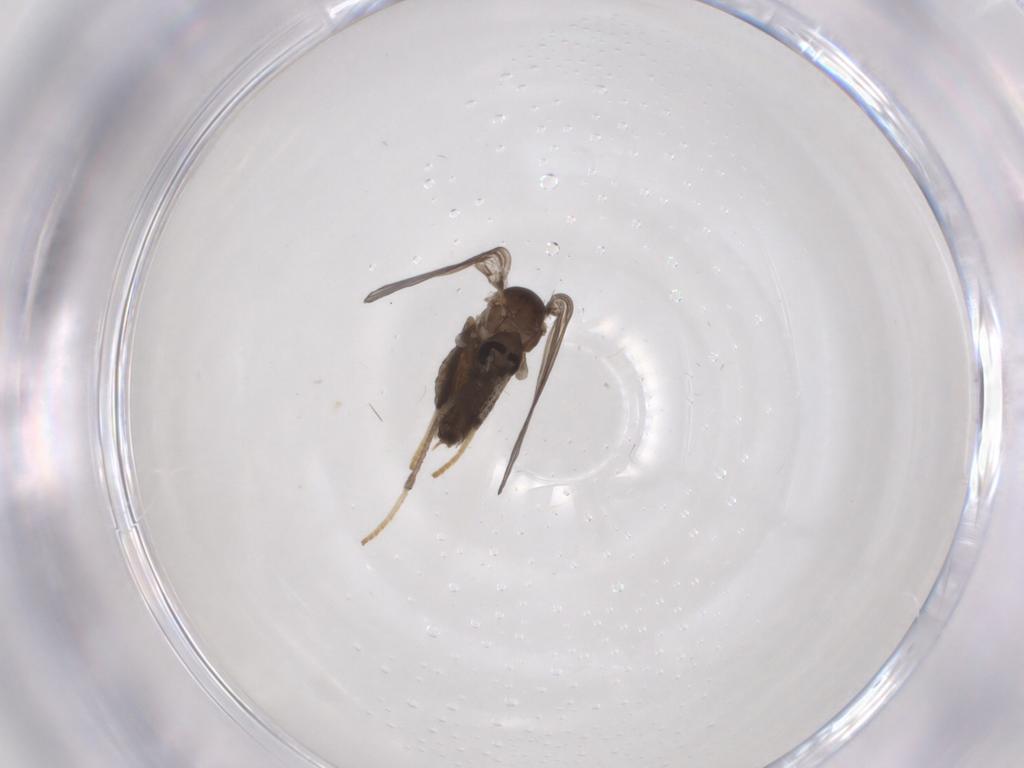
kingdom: Animalia
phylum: Arthropoda
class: Insecta
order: Diptera
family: Psychodidae
